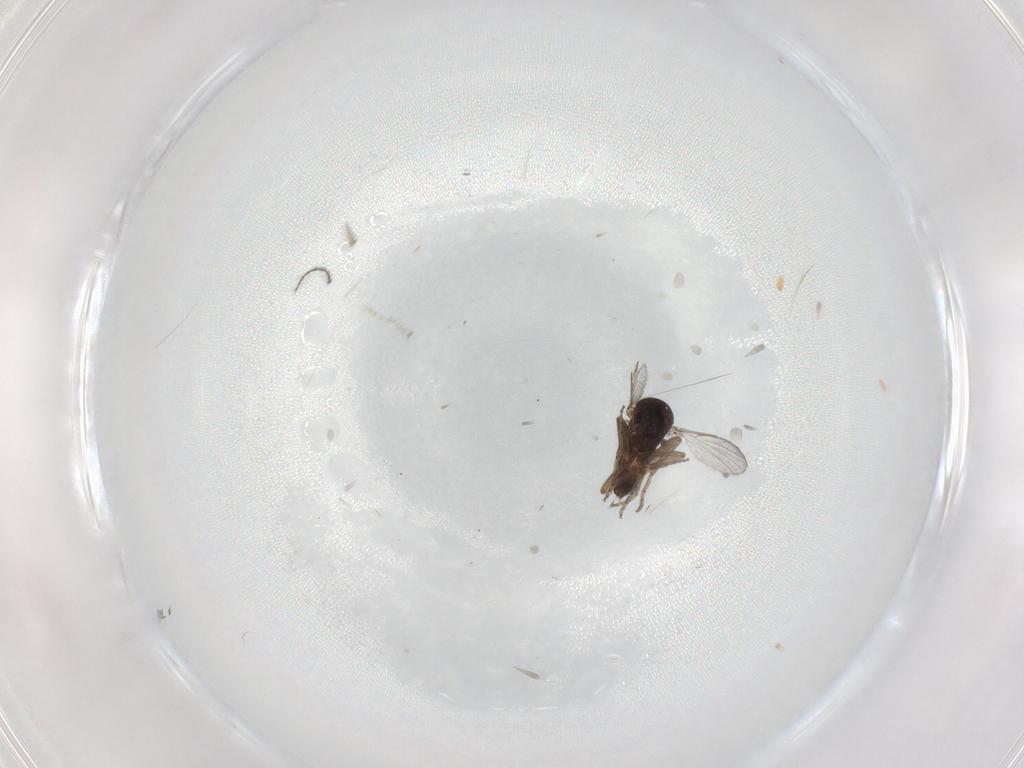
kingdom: Animalia
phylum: Arthropoda
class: Insecta
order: Diptera
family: Ceratopogonidae
